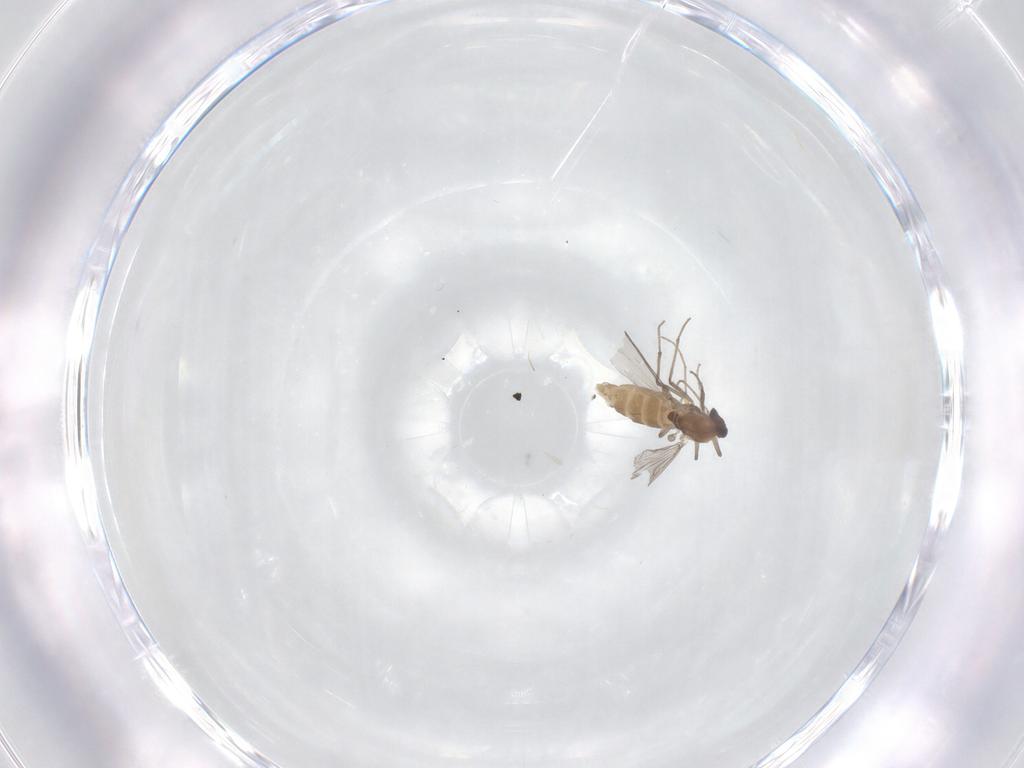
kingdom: Animalia
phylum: Arthropoda
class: Insecta
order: Diptera
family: Chironomidae
